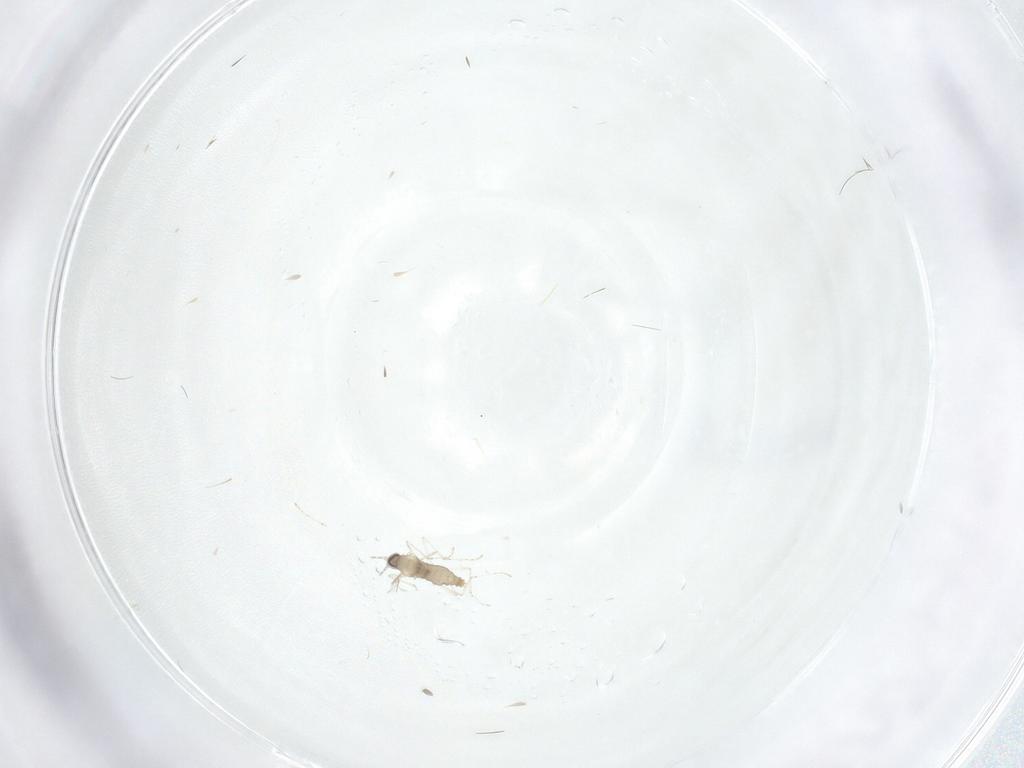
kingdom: Animalia
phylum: Arthropoda
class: Insecta
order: Diptera
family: Cecidomyiidae
